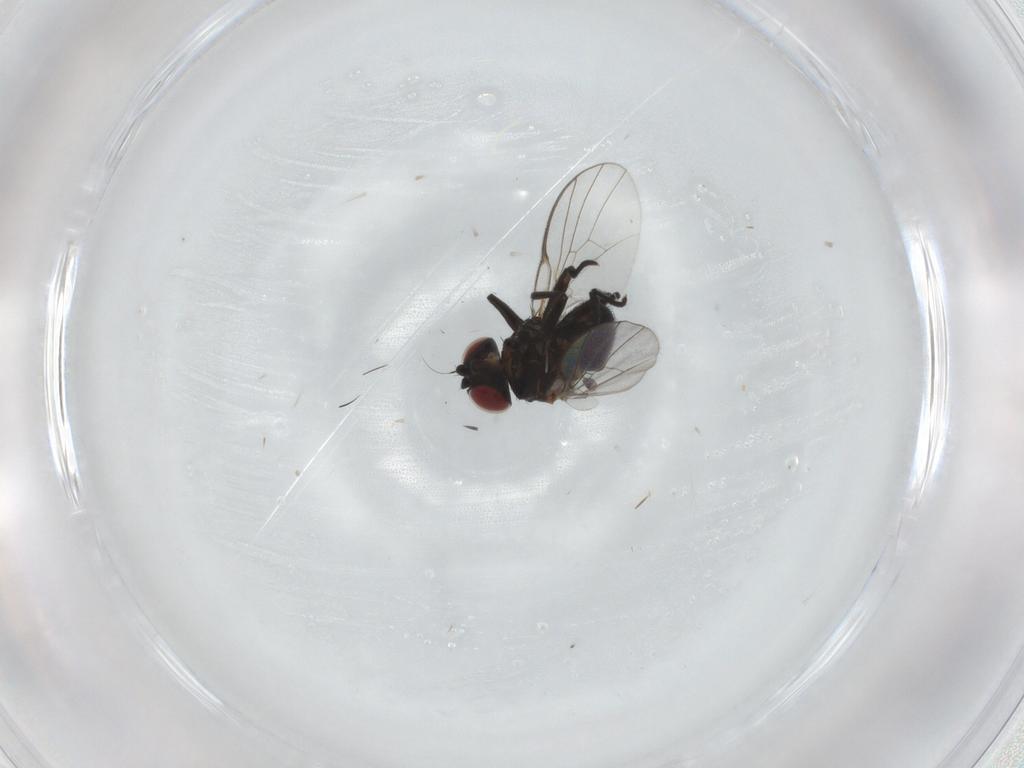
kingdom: Animalia
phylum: Arthropoda
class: Insecta
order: Diptera
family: Agromyzidae
